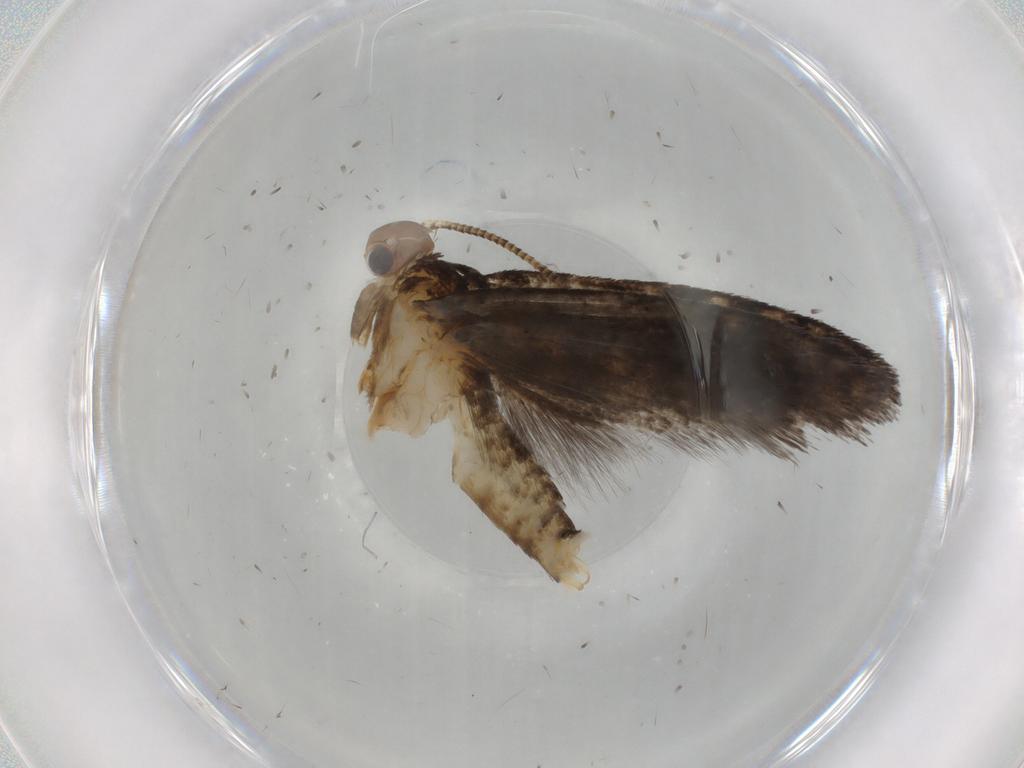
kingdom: Animalia
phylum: Arthropoda
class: Insecta
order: Lepidoptera
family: Tineidae
